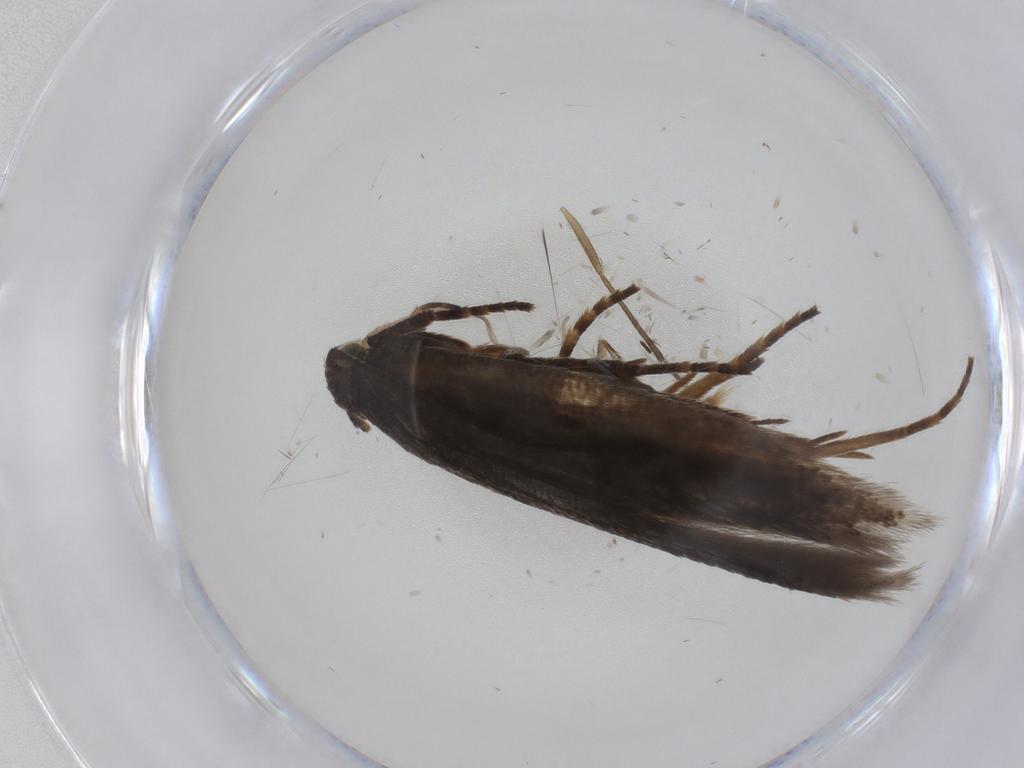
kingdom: Animalia
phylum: Arthropoda
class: Insecta
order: Lepidoptera
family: Gelechiidae
